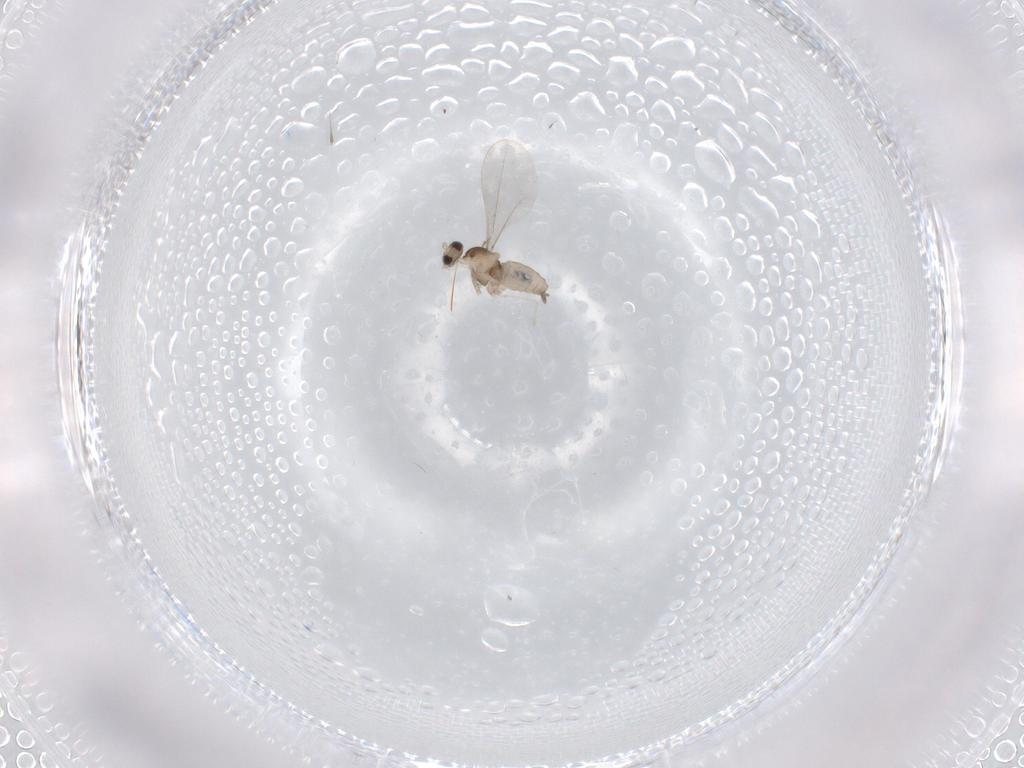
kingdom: Animalia
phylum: Arthropoda
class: Insecta
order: Diptera
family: Cecidomyiidae
